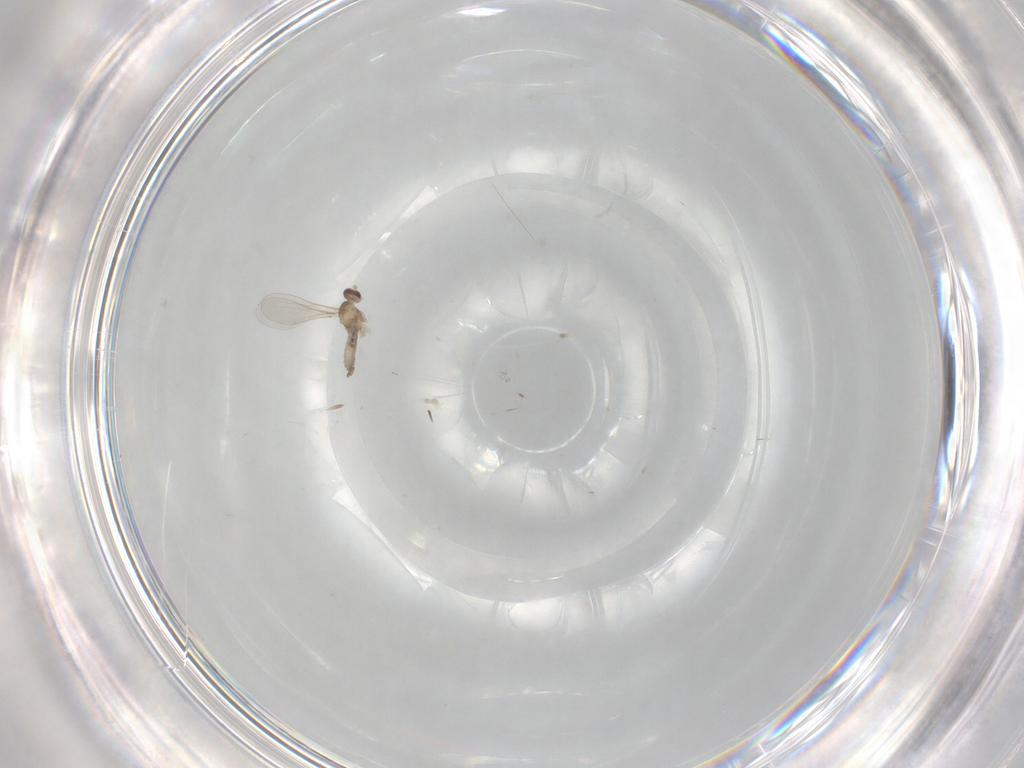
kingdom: Animalia
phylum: Arthropoda
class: Insecta
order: Diptera
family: Cecidomyiidae
